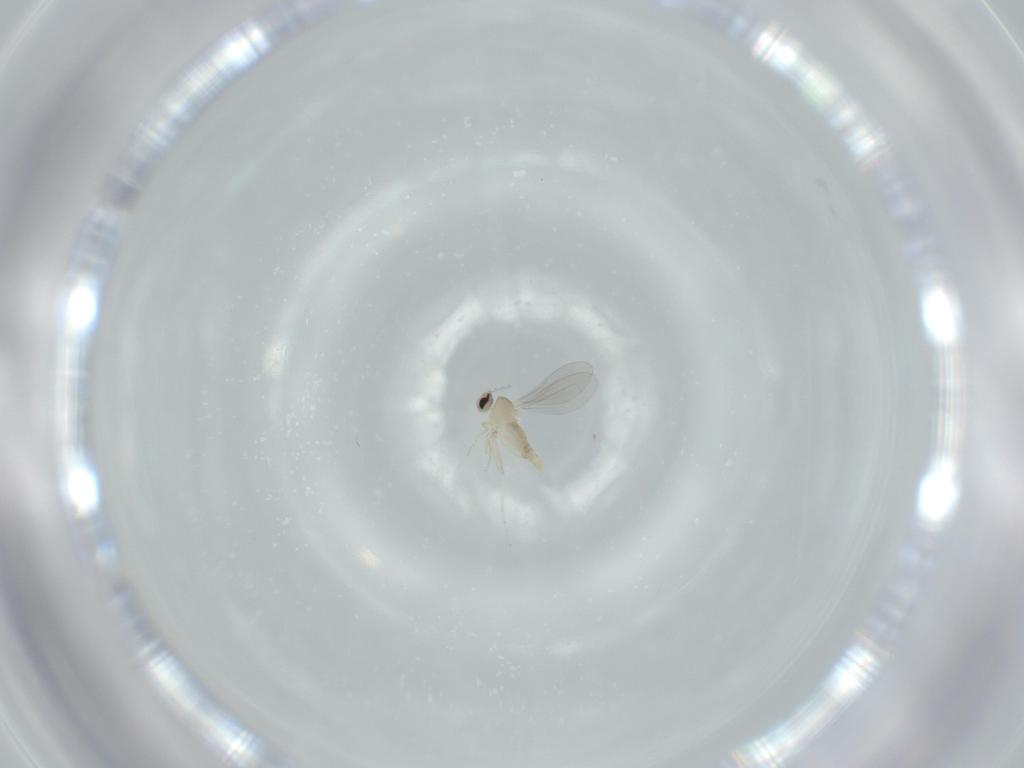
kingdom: Animalia
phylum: Arthropoda
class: Insecta
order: Diptera
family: Cecidomyiidae
